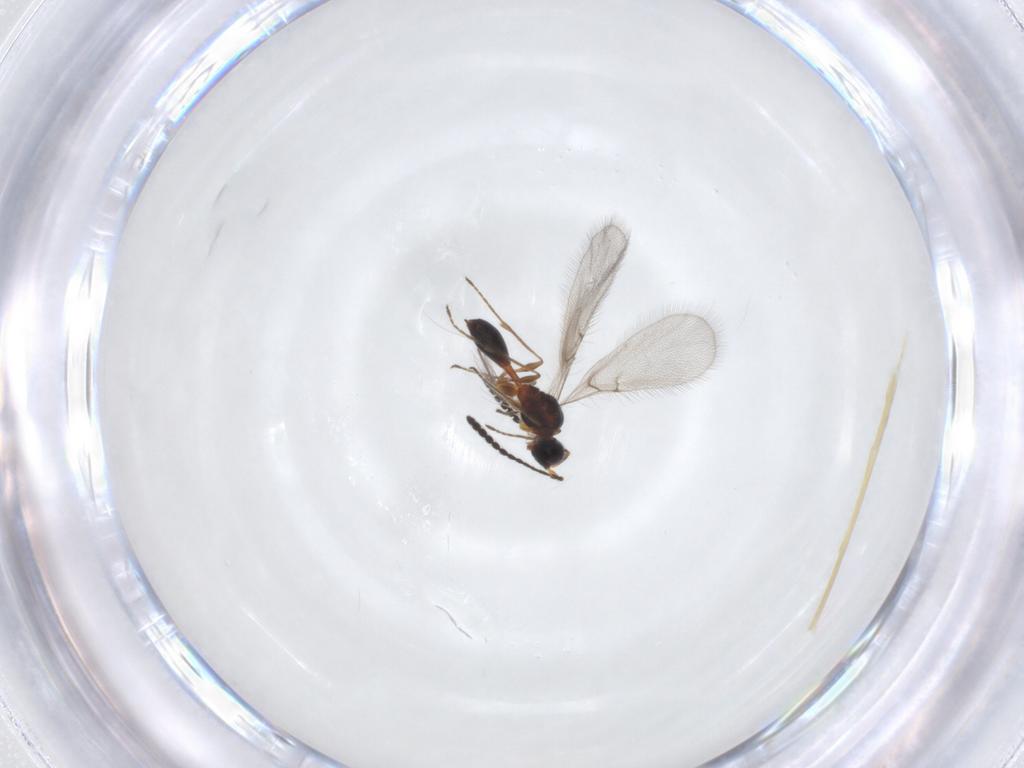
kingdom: Animalia
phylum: Arthropoda
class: Insecta
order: Hymenoptera
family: Diapriidae
